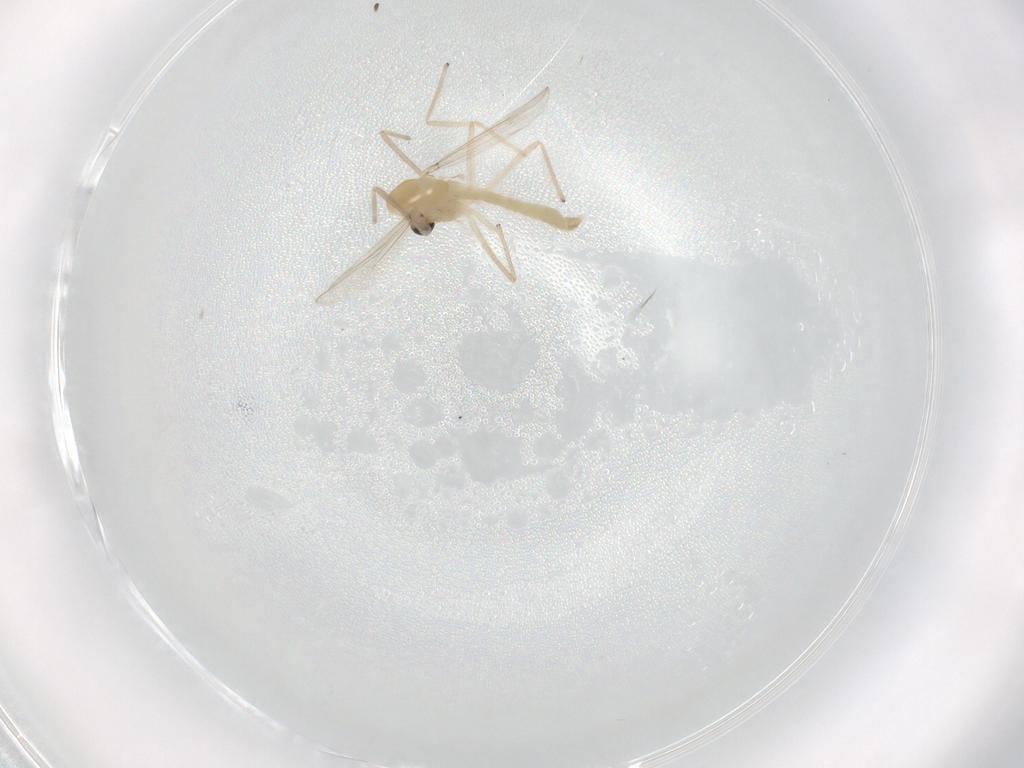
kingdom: Animalia
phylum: Arthropoda
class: Insecta
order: Diptera
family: Chironomidae
